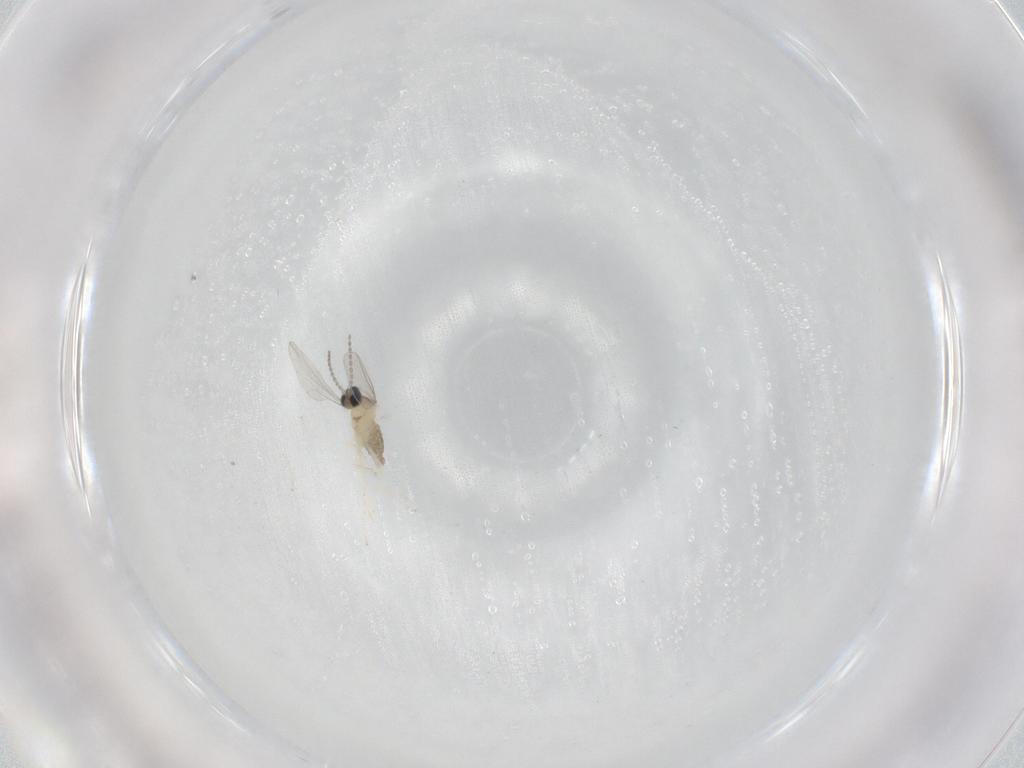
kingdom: Animalia
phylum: Arthropoda
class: Insecta
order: Diptera
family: Cecidomyiidae
